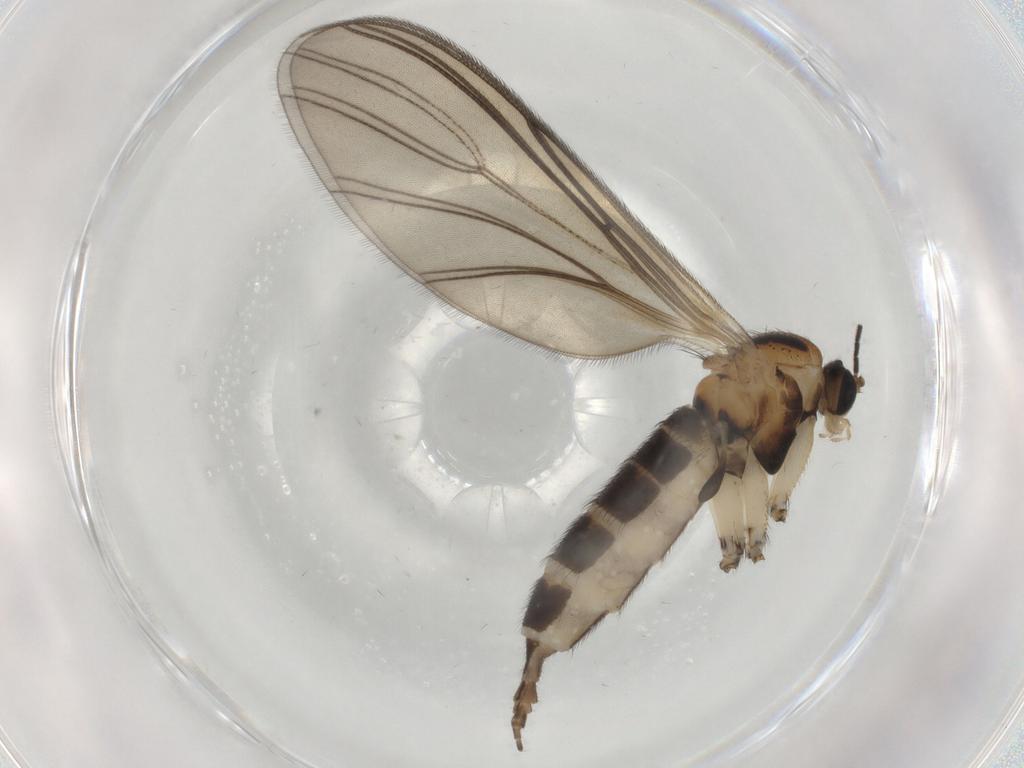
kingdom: Animalia
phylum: Arthropoda
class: Insecta
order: Diptera
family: Sciaridae
